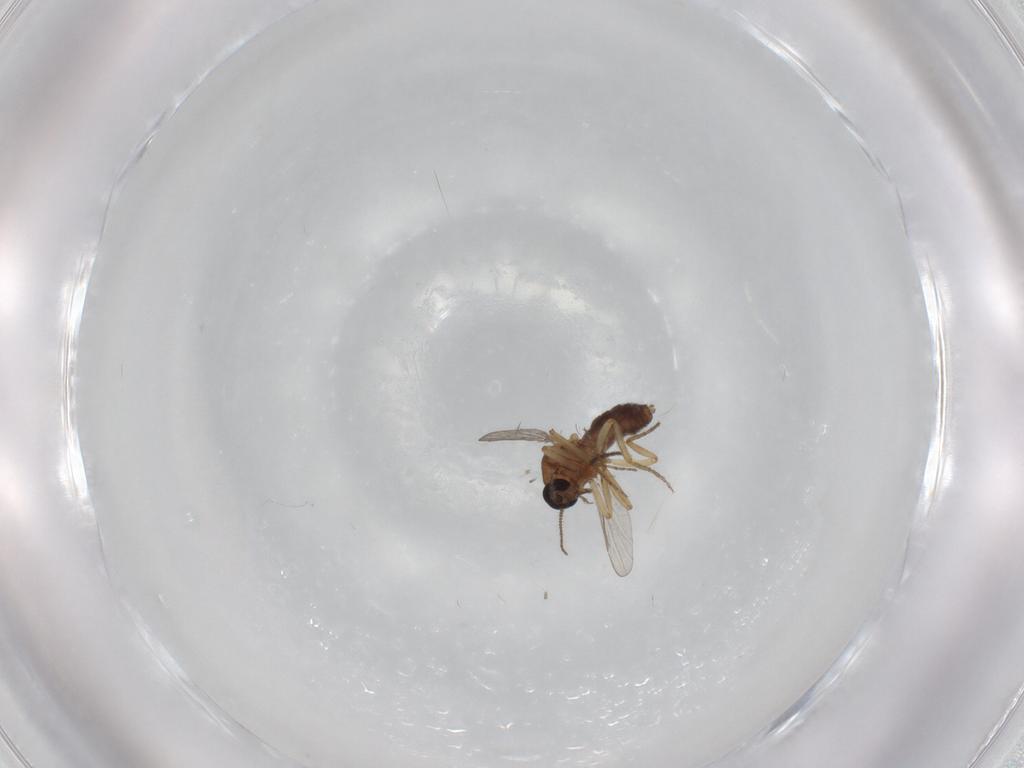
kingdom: Animalia
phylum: Arthropoda
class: Insecta
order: Diptera
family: Sciaridae
